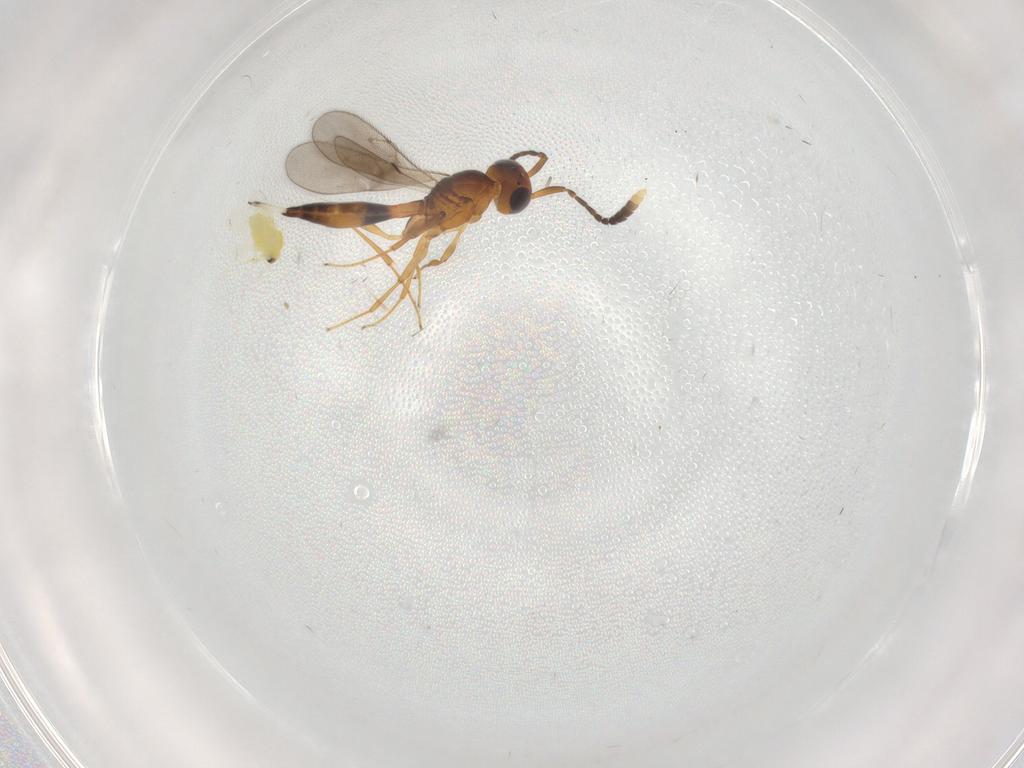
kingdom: Animalia
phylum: Arthropoda
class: Insecta
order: Hymenoptera
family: Scelionidae
